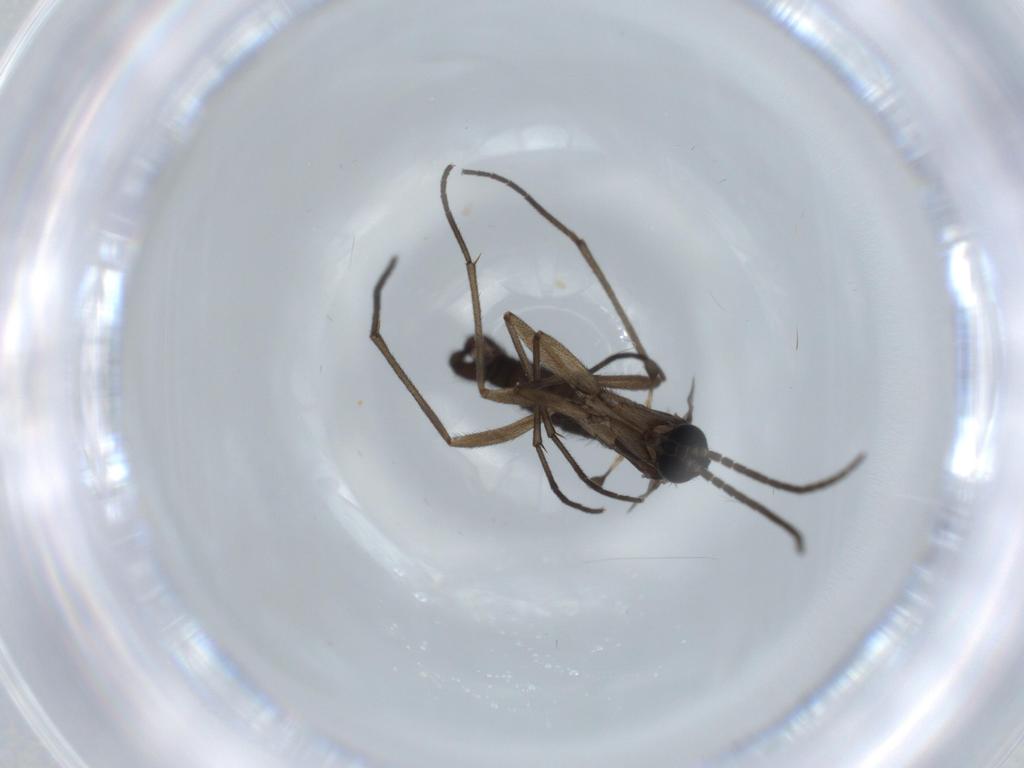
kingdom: Animalia
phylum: Arthropoda
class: Insecta
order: Diptera
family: Sciaridae
